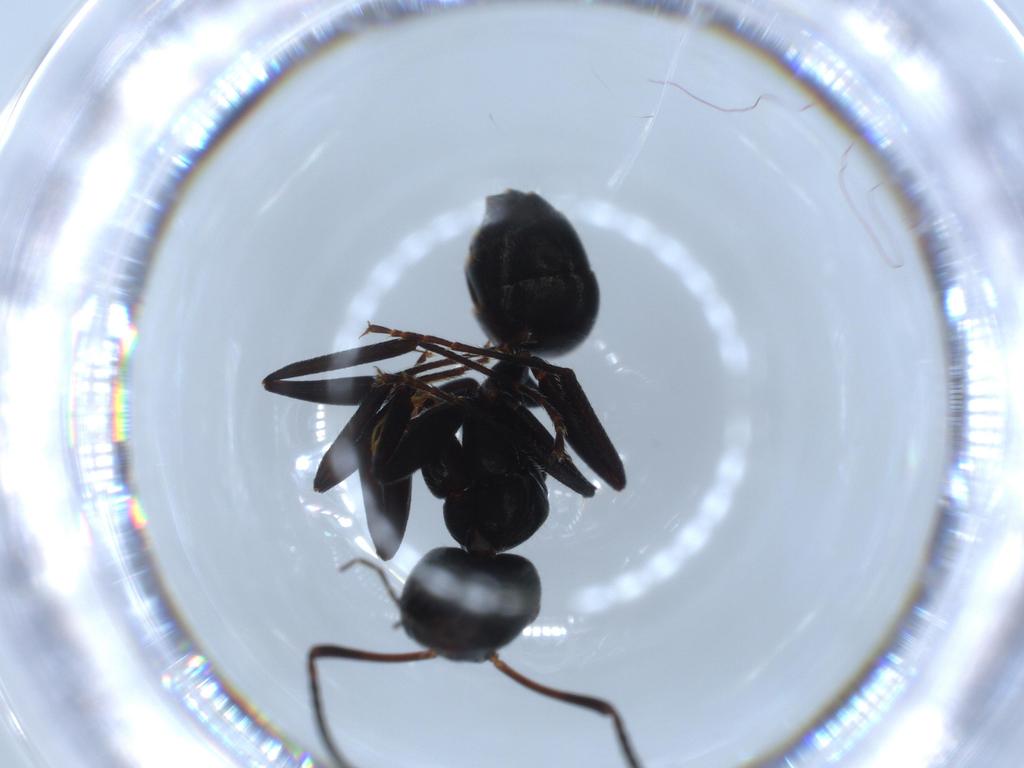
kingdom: Animalia
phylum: Arthropoda
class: Insecta
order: Hymenoptera
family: Formicidae
